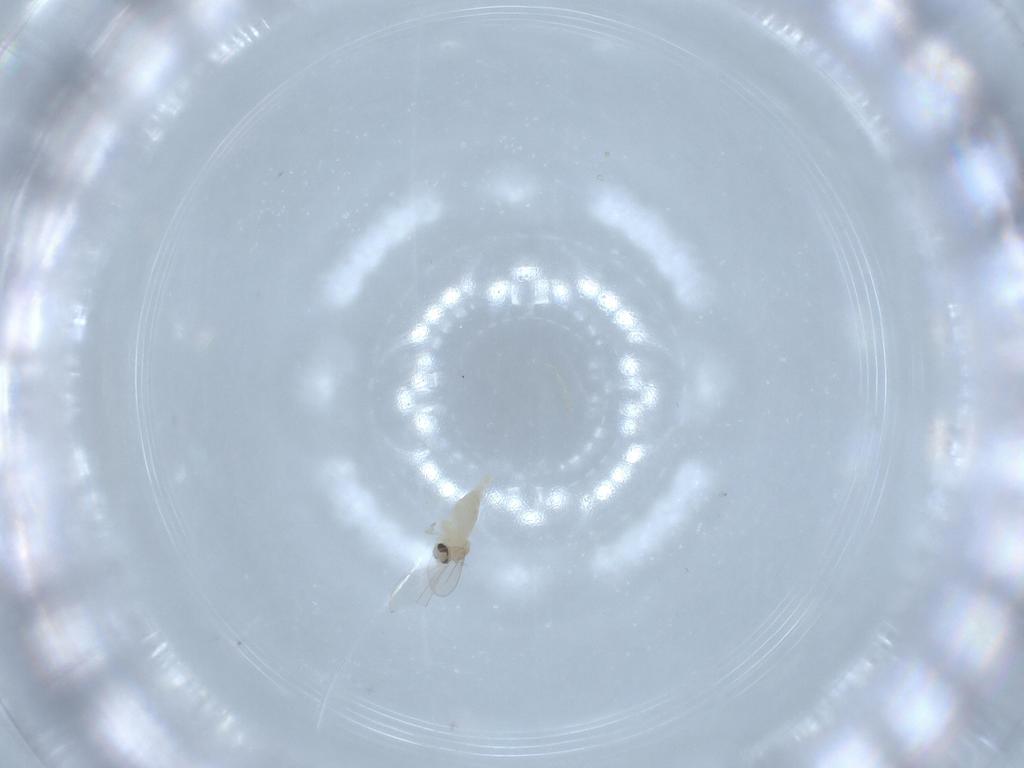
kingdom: Animalia
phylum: Arthropoda
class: Insecta
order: Diptera
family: Cecidomyiidae
